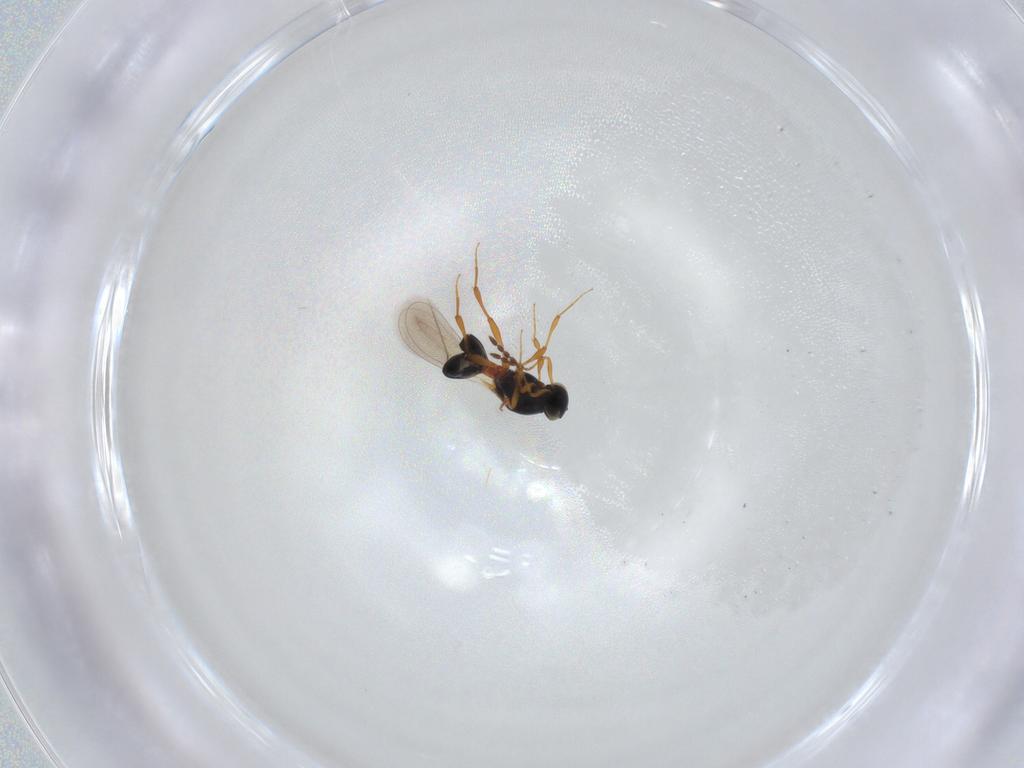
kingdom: Animalia
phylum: Arthropoda
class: Insecta
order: Hymenoptera
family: Platygastridae
